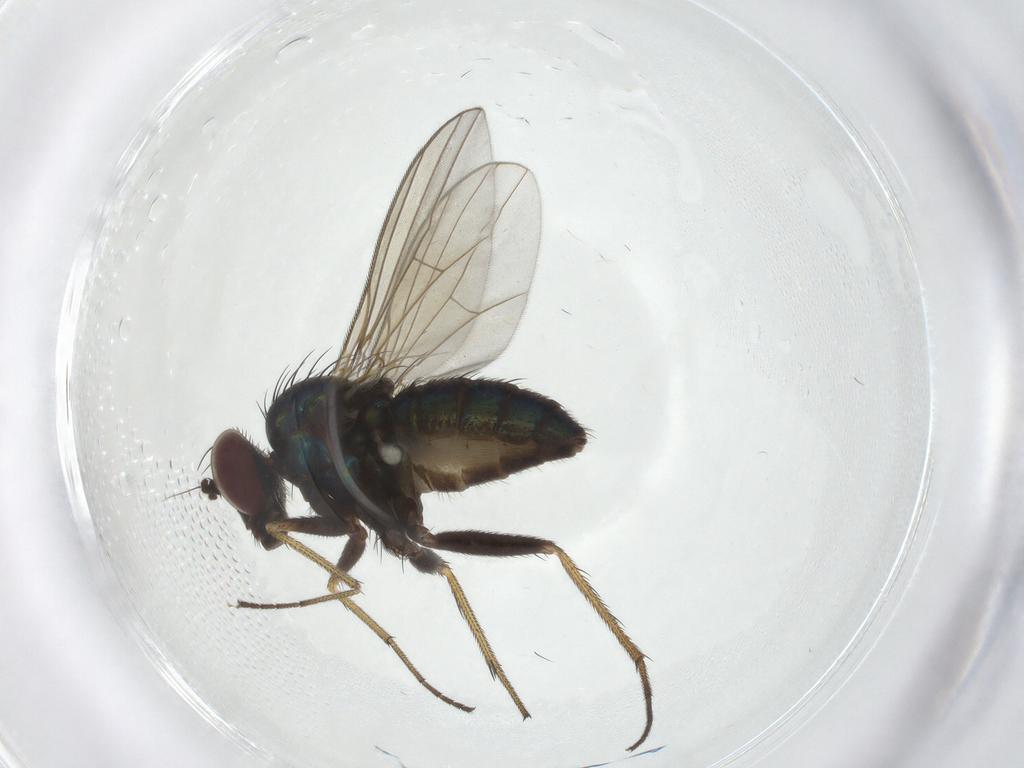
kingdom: Animalia
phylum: Arthropoda
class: Insecta
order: Diptera
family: Dolichopodidae
